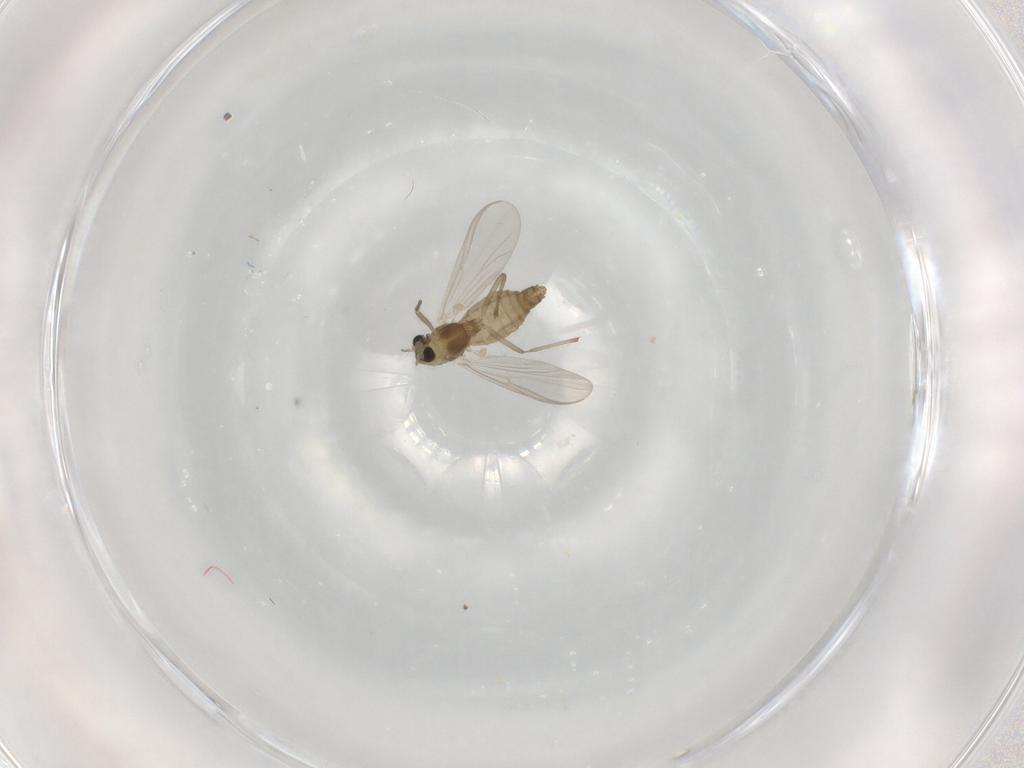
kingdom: Animalia
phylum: Arthropoda
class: Insecta
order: Diptera
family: Chironomidae
